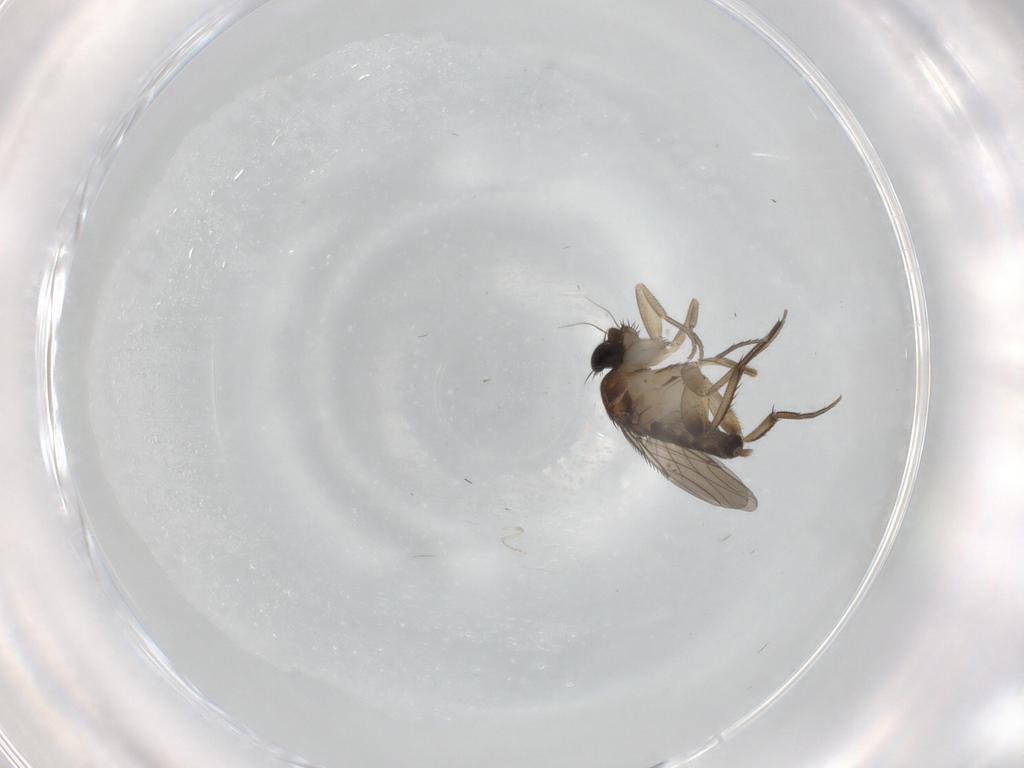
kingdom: Animalia
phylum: Arthropoda
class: Insecta
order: Diptera
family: Phoridae
